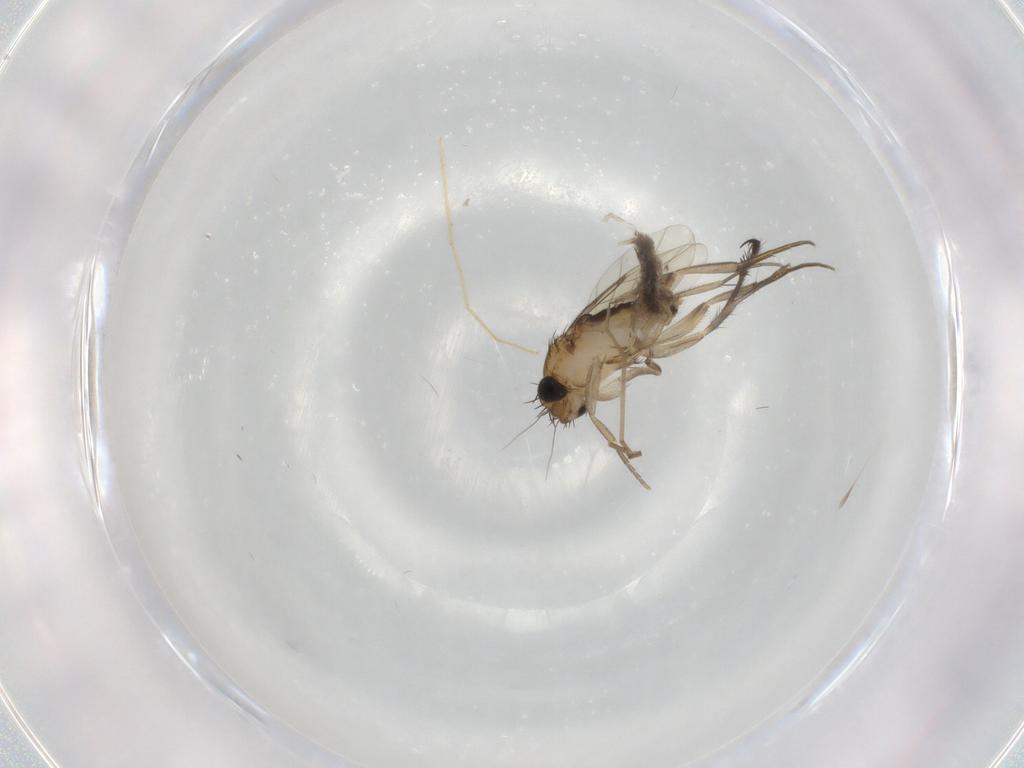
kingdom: Animalia
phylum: Arthropoda
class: Insecta
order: Diptera
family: Phoridae
